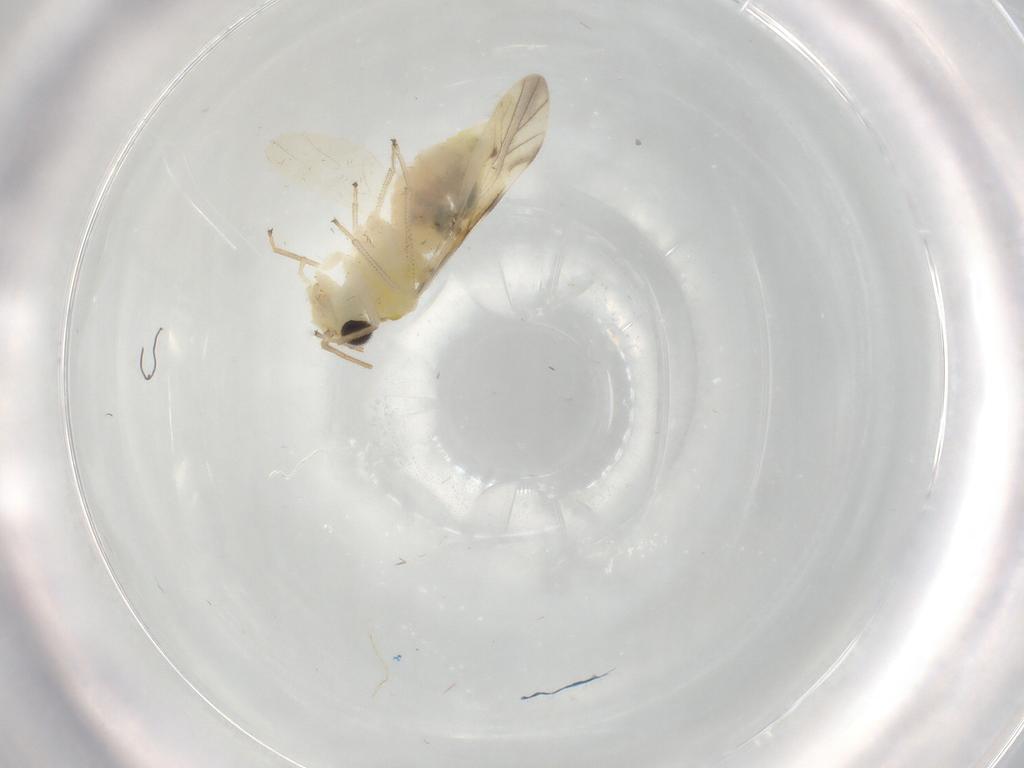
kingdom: Animalia
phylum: Arthropoda
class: Insecta
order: Psocodea
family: Caeciliusidae
